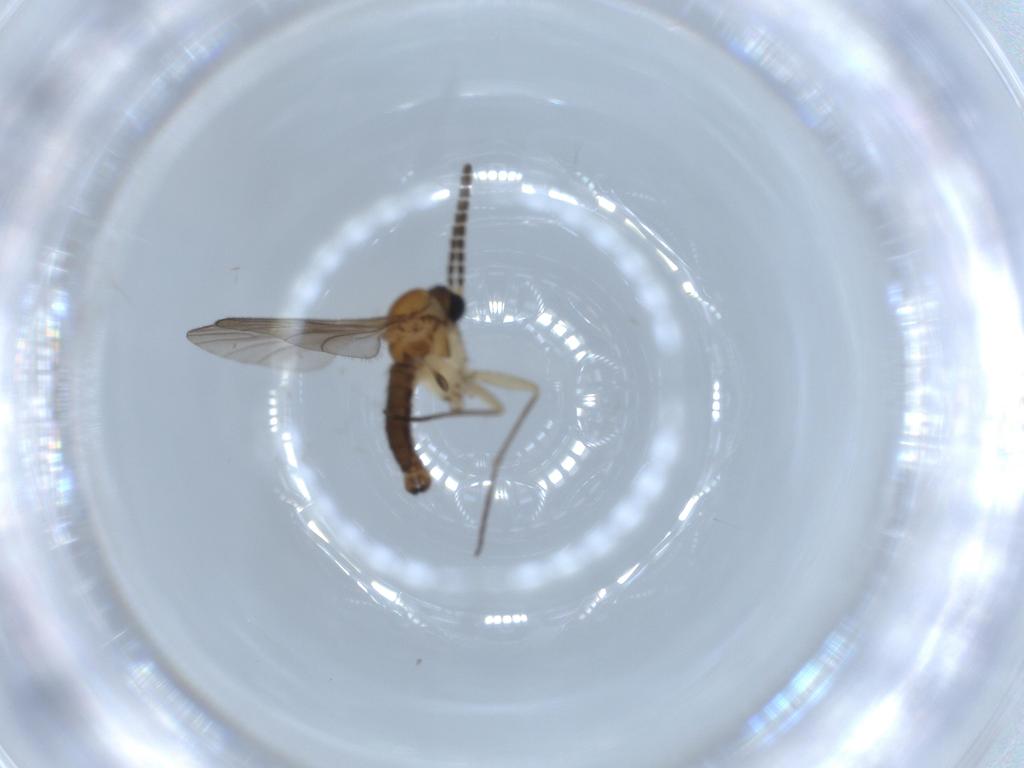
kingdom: Animalia
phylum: Arthropoda
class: Insecta
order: Diptera
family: Sciaridae
